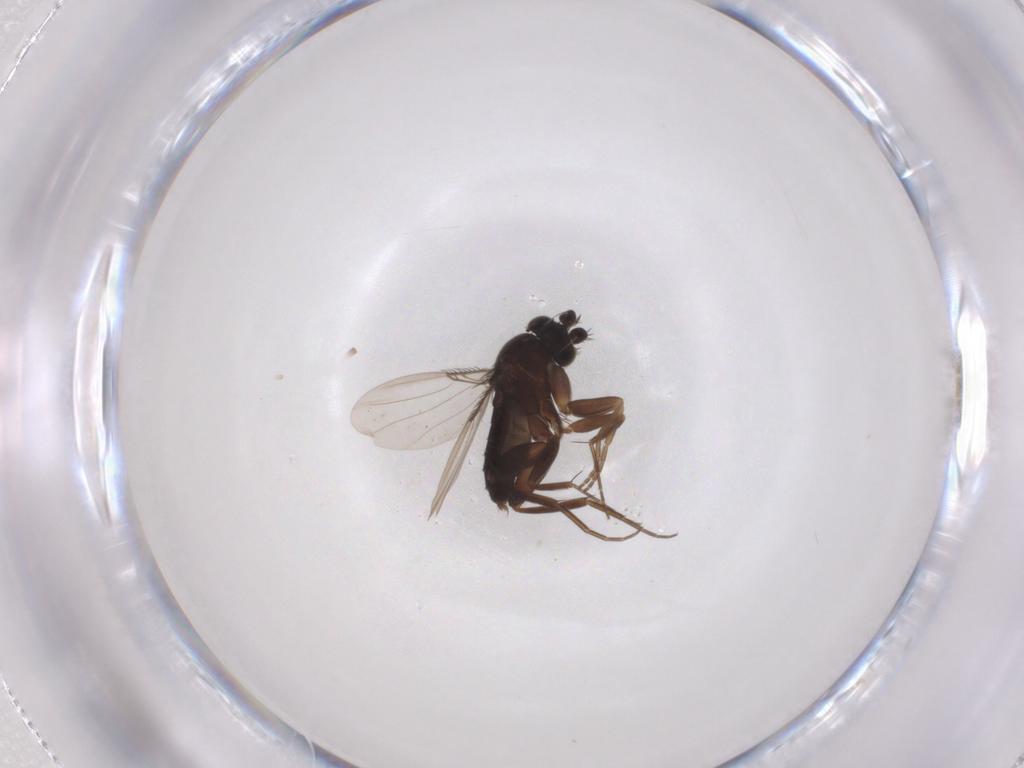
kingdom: Animalia
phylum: Arthropoda
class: Insecta
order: Diptera
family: Phoridae
